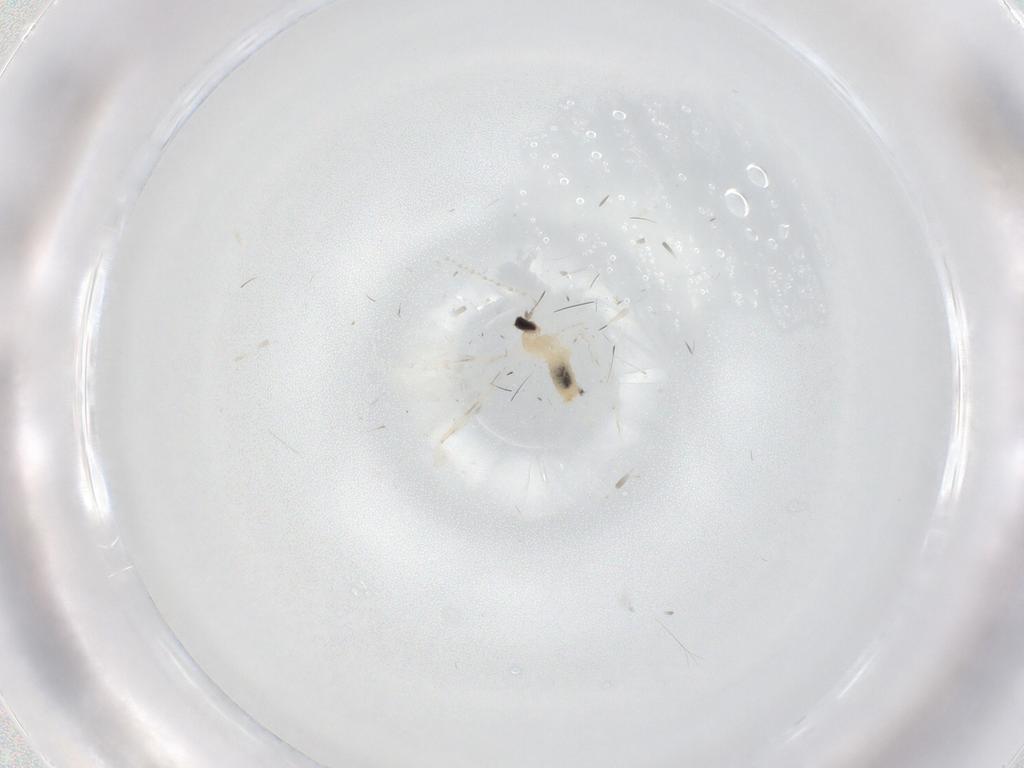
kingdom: Animalia
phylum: Arthropoda
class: Insecta
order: Diptera
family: Cecidomyiidae
